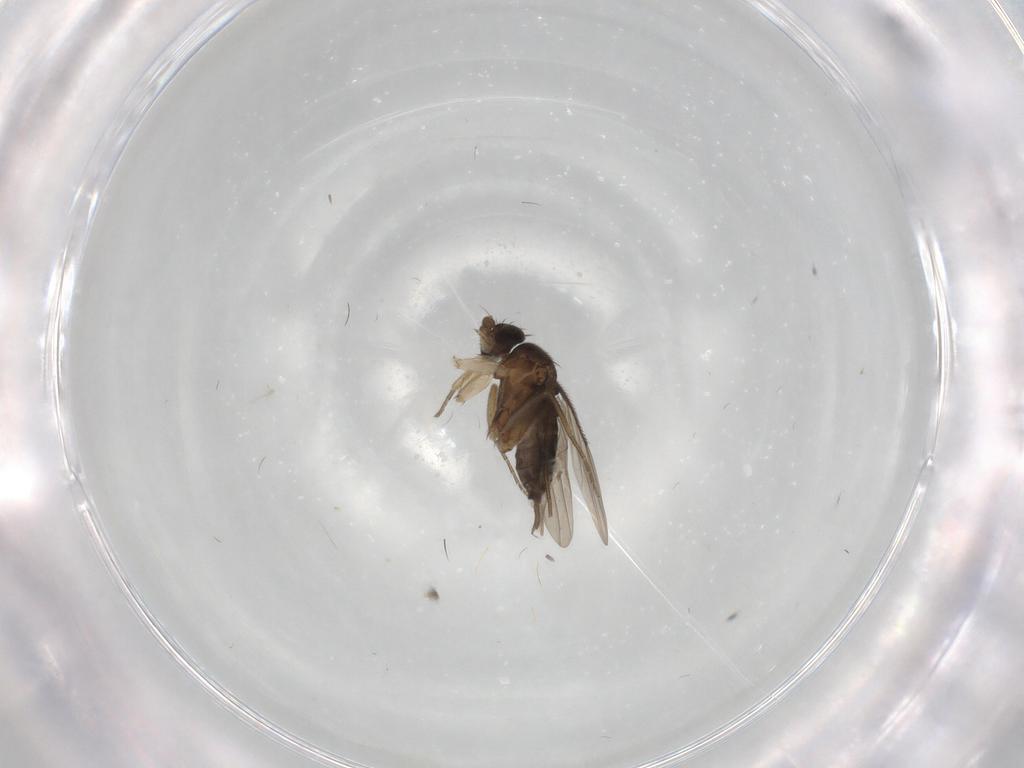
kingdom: Animalia
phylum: Arthropoda
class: Insecta
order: Diptera
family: Phoridae
